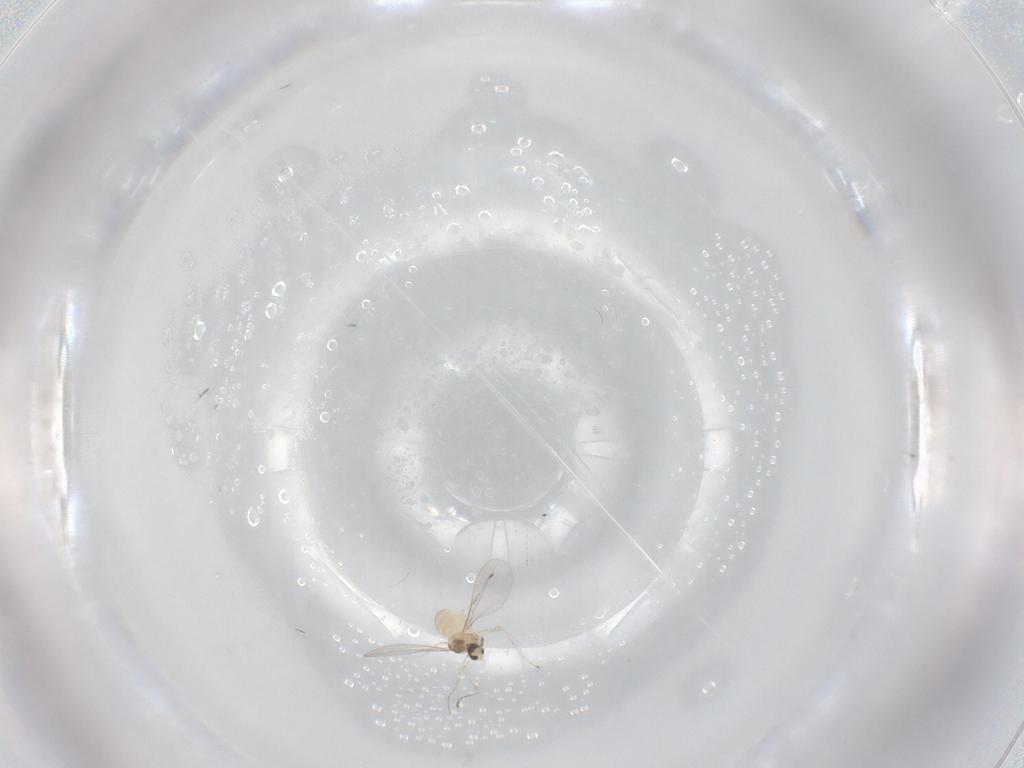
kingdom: Animalia
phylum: Arthropoda
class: Insecta
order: Diptera
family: Cecidomyiidae
